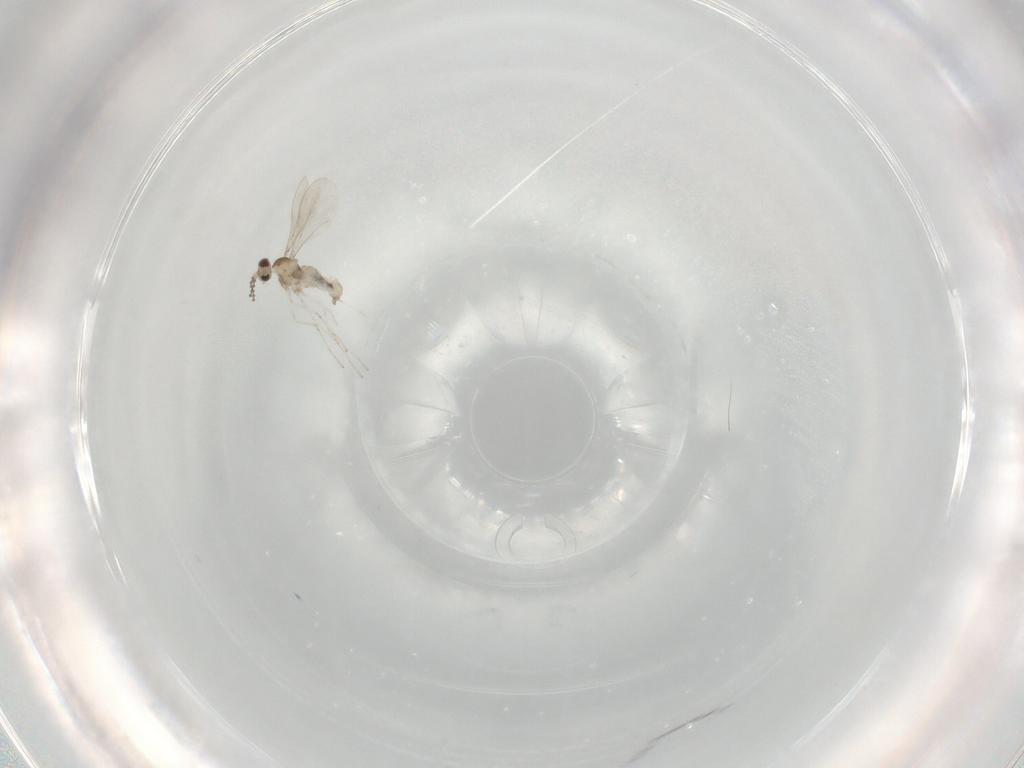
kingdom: Animalia
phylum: Arthropoda
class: Insecta
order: Diptera
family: Cecidomyiidae
